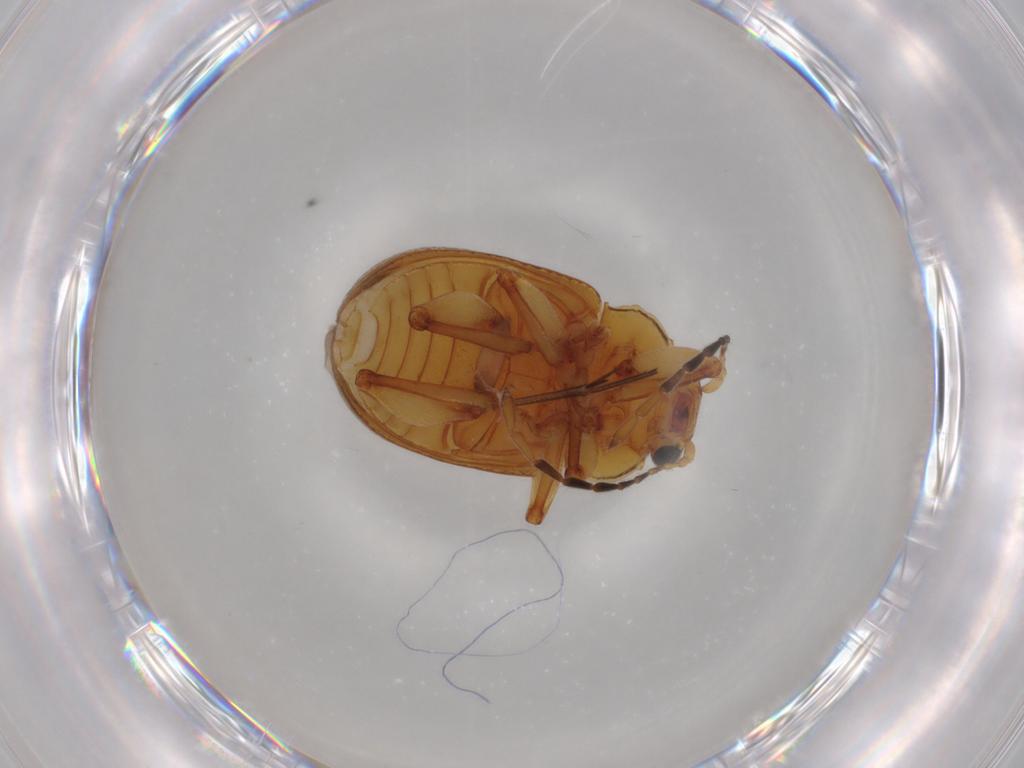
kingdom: Animalia
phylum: Arthropoda
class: Insecta
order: Coleoptera
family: Chrysomelidae
